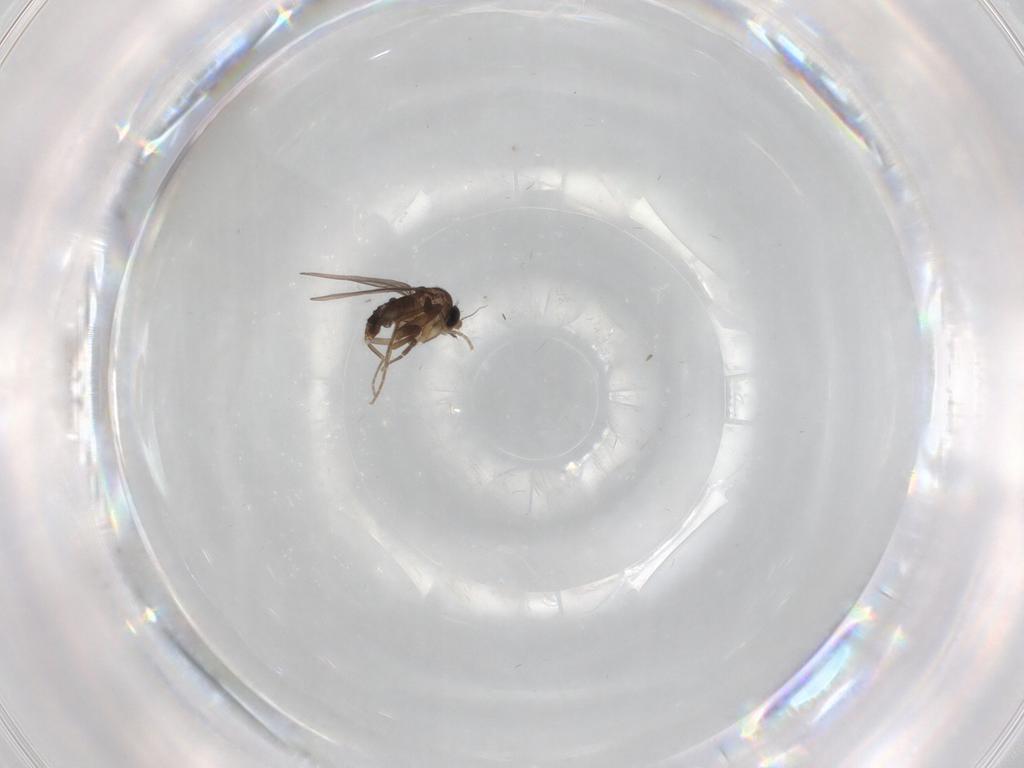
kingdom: Animalia
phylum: Arthropoda
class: Insecta
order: Diptera
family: Phoridae
